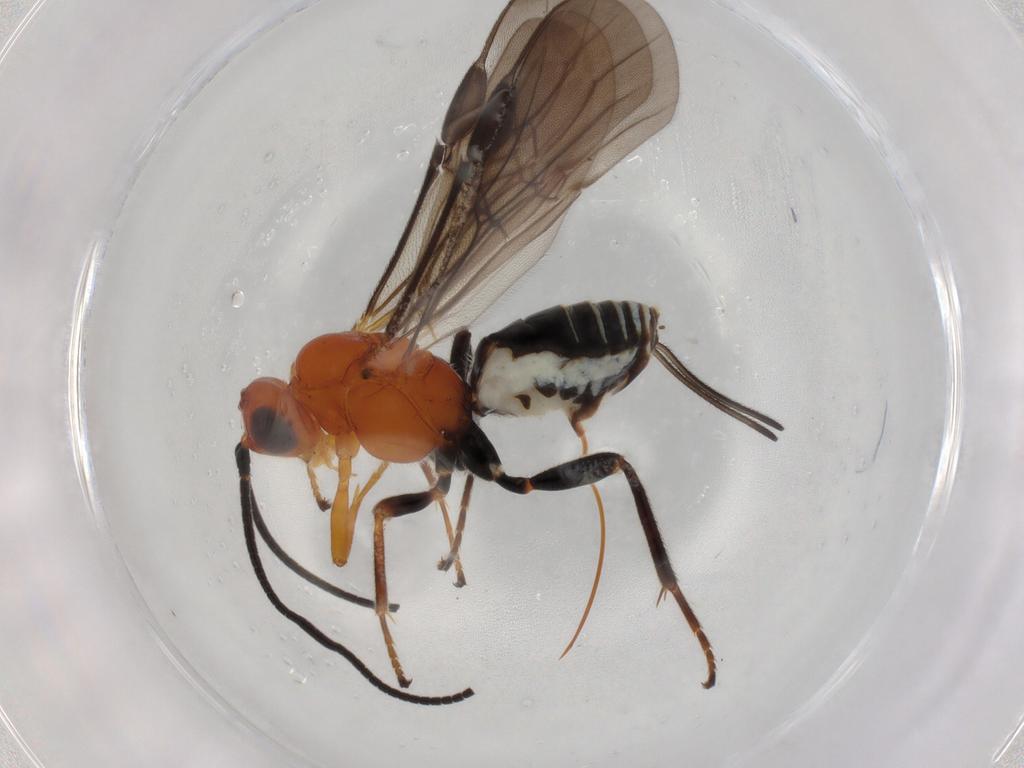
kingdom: Animalia
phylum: Arthropoda
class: Insecta
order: Hymenoptera
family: Braconidae
